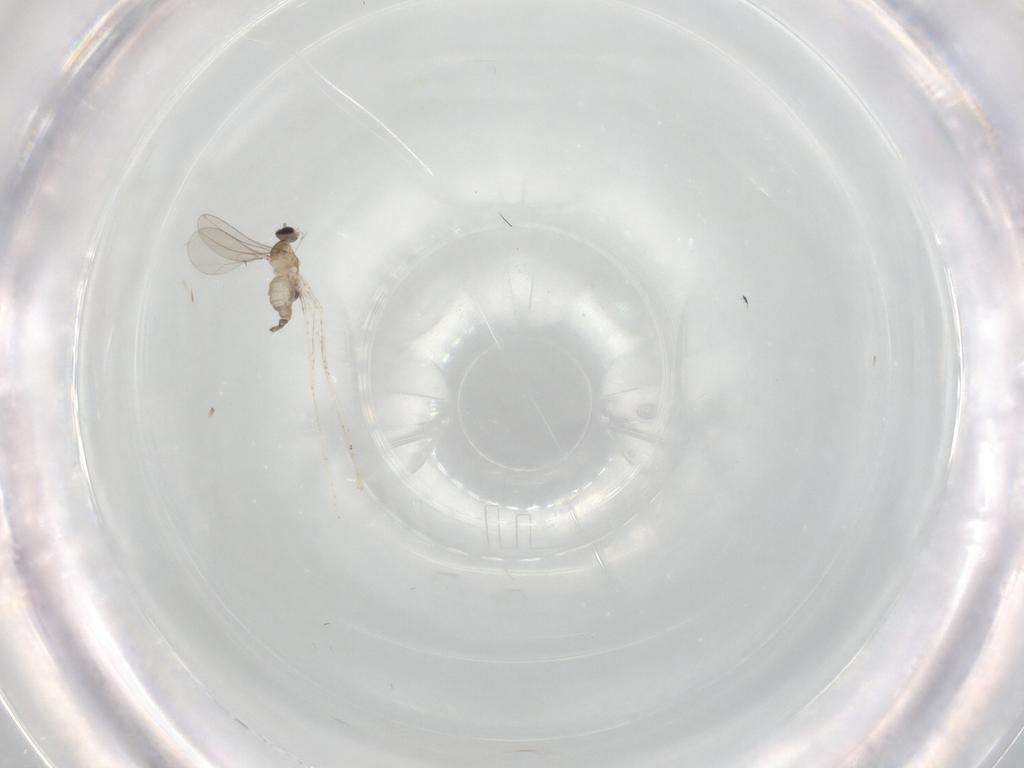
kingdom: Animalia
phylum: Arthropoda
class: Insecta
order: Diptera
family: Cecidomyiidae
